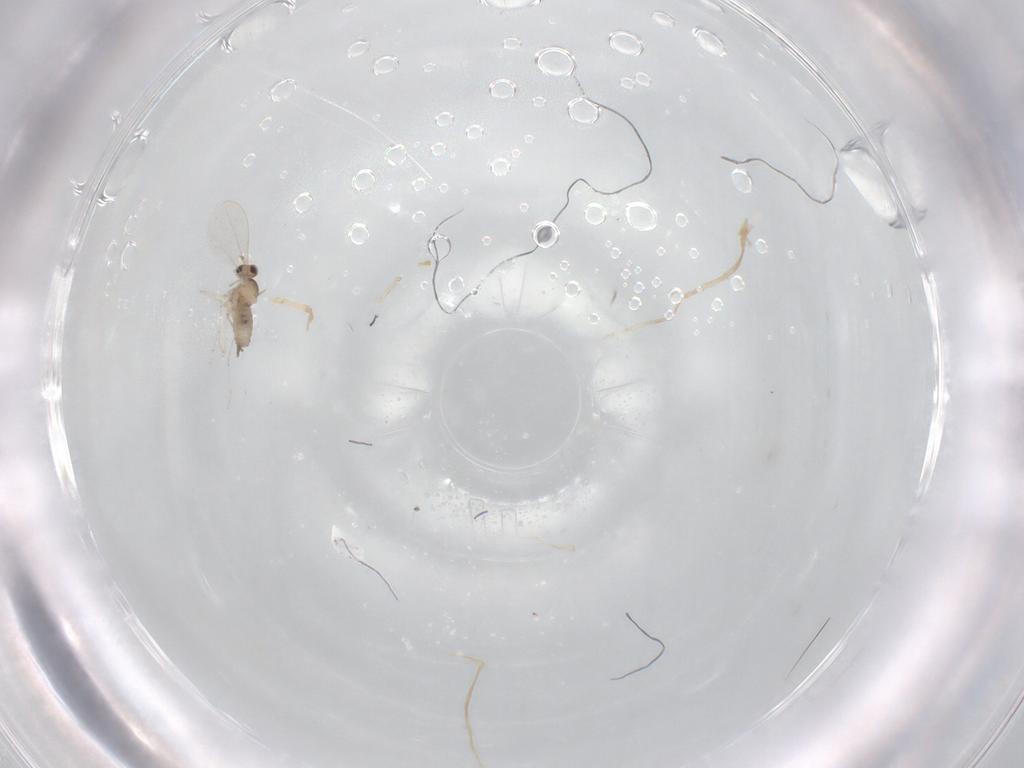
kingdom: Animalia
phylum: Arthropoda
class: Insecta
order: Diptera
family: Cecidomyiidae
